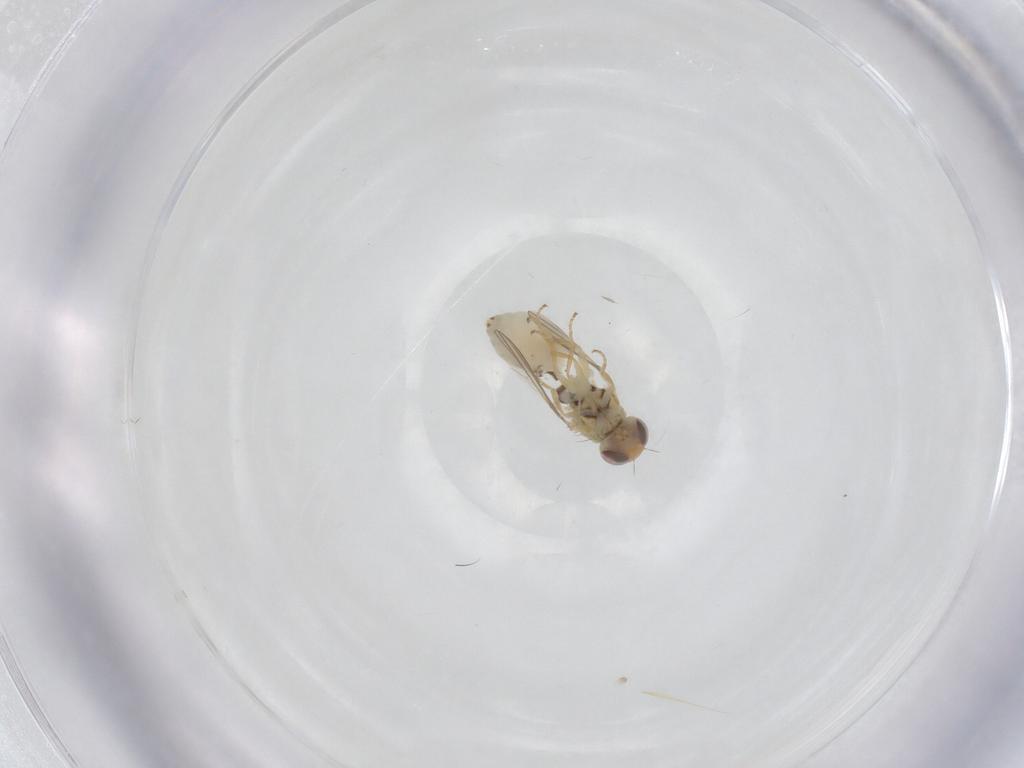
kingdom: Animalia
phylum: Arthropoda
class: Insecta
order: Diptera
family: Chyromyidae
